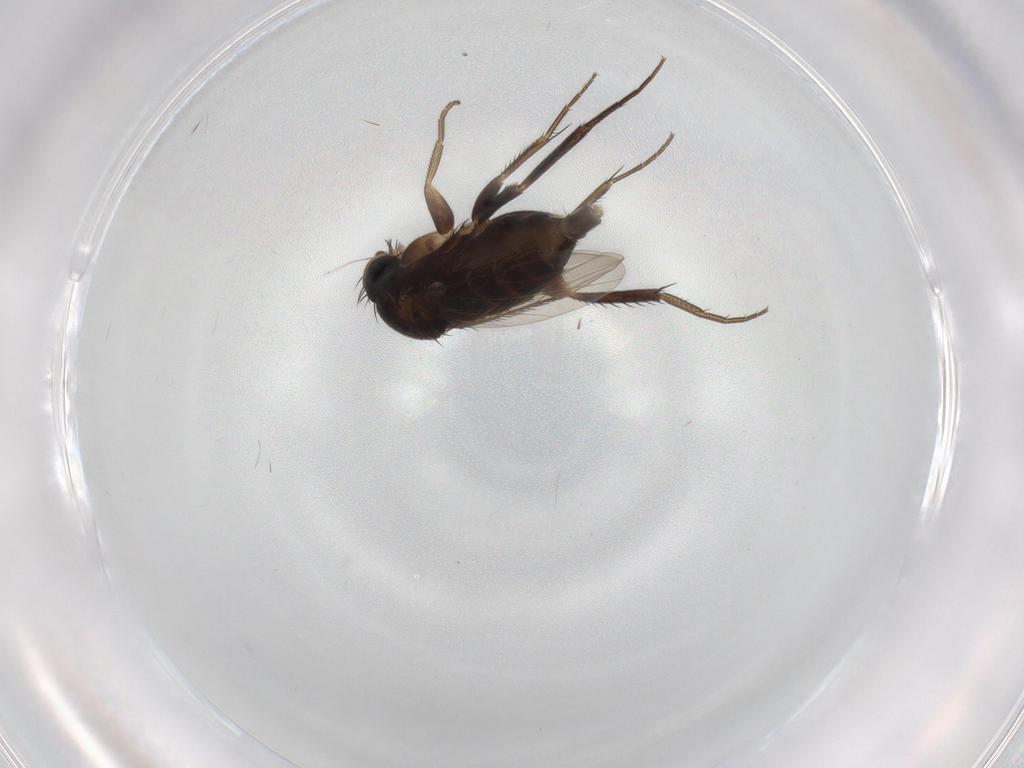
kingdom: Animalia
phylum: Arthropoda
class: Insecta
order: Diptera
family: Phoridae
